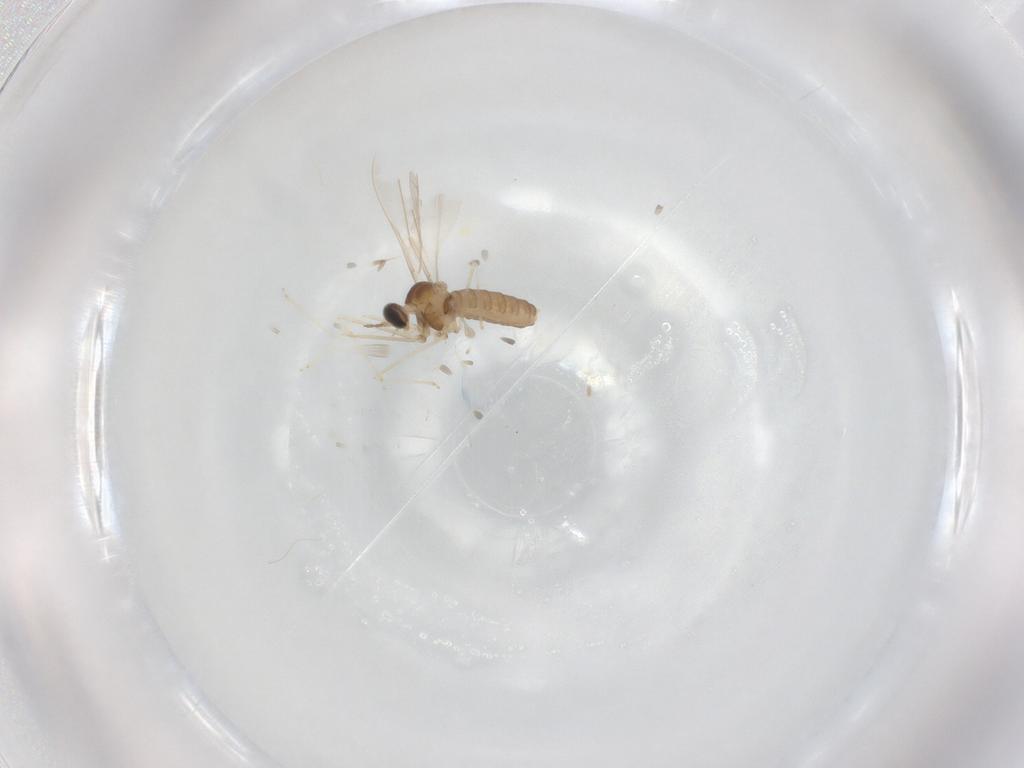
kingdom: Animalia
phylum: Arthropoda
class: Insecta
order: Diptera
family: Cecidomyiidae
